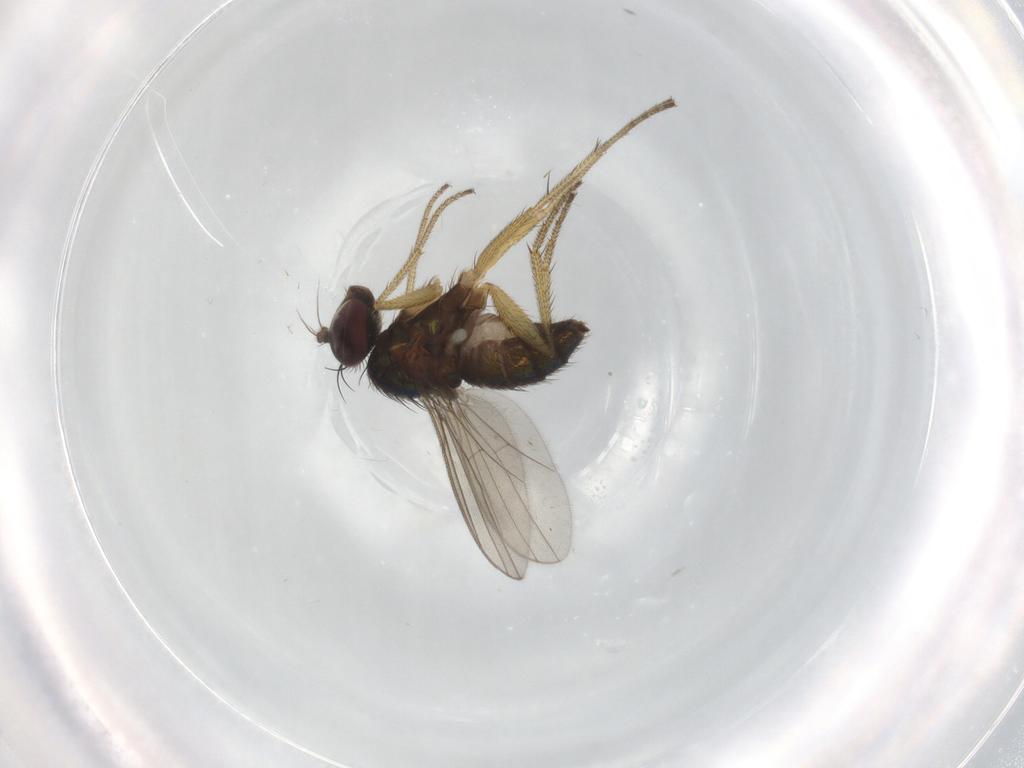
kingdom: Animalia
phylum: Arthropoda
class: Insecta
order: Diptera
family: Dolichopodidae
